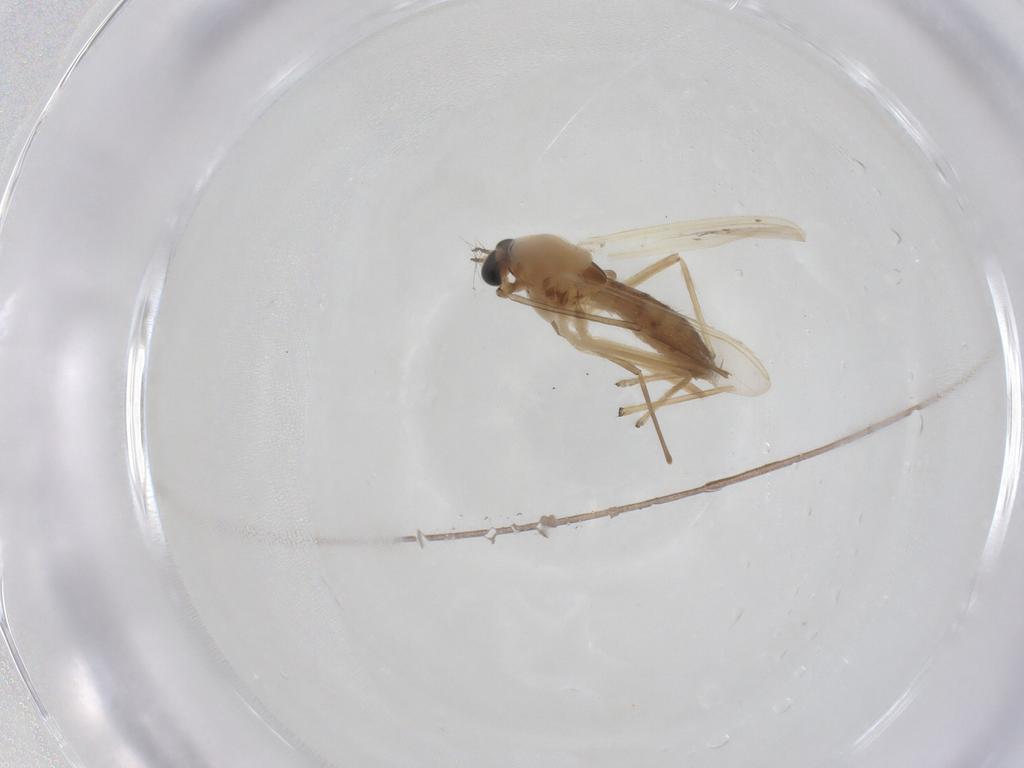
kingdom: Animalia
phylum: Arthropoda
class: Insecta
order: Diptera
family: Chironomidae
